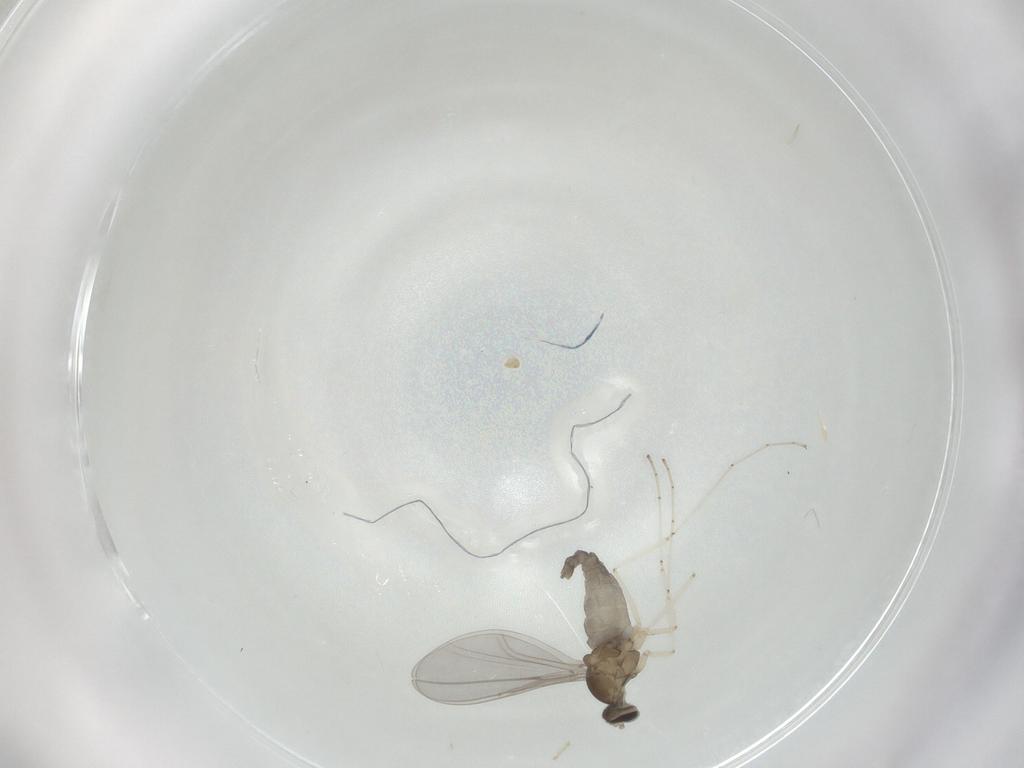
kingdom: Animalia
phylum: Arthropoda
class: Insecta
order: Diptera
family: Cecidomyiidae
